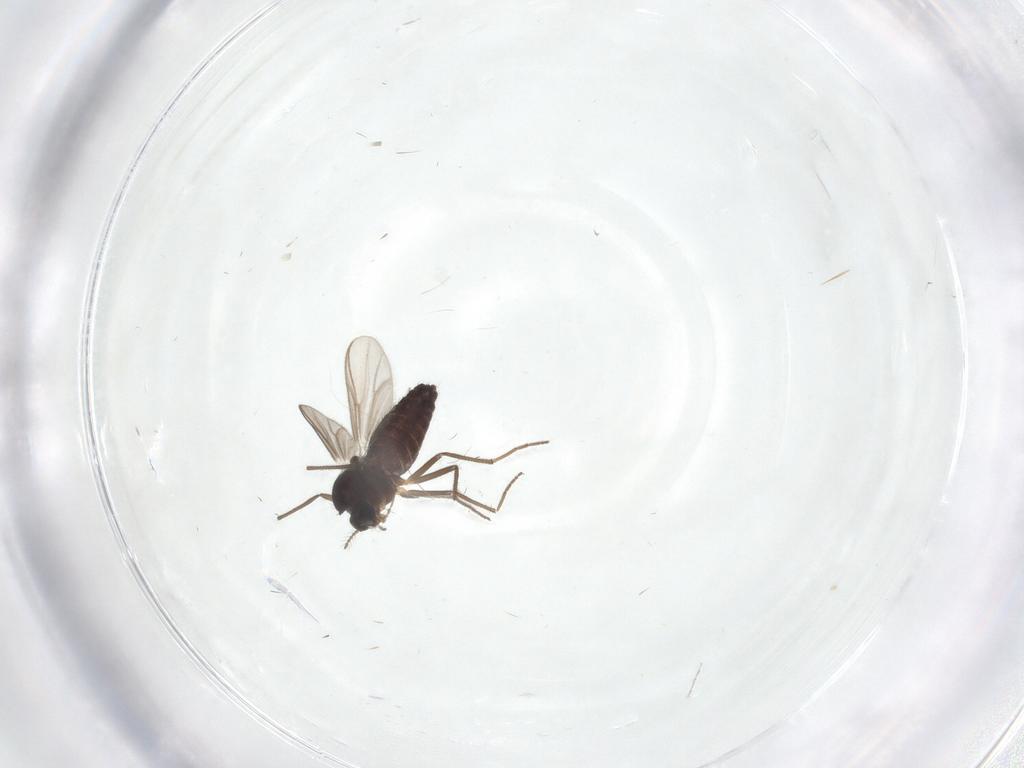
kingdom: Animalia
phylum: Arthropoda
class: Insecta
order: Diptera
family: Chironomidae
